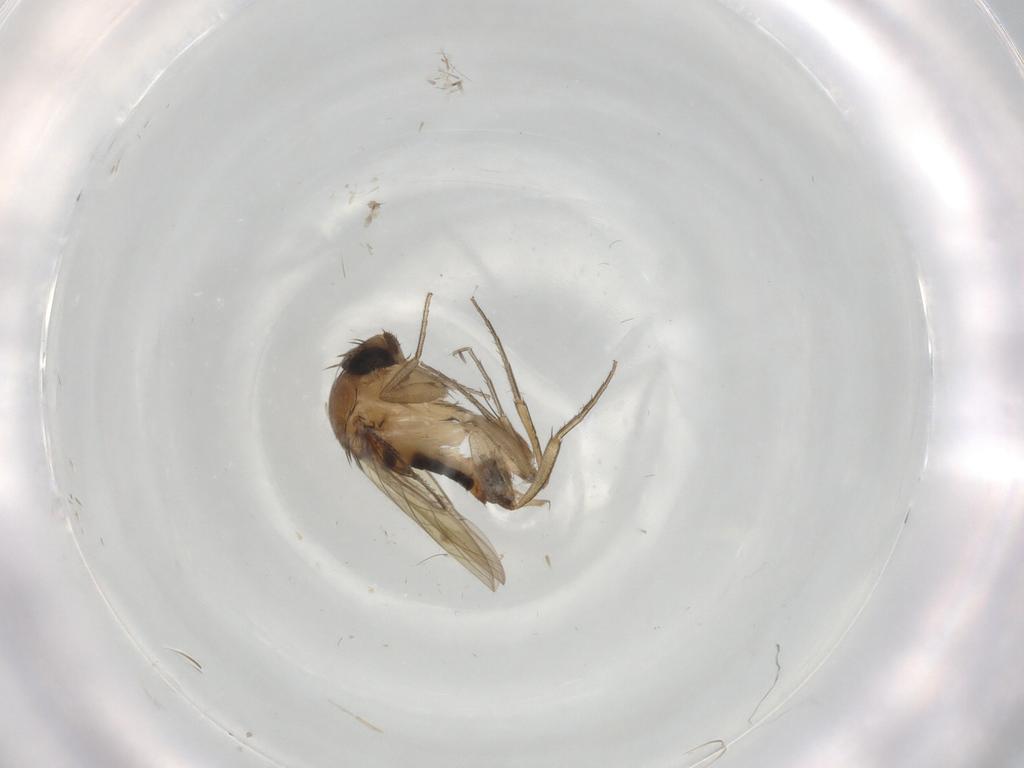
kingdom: Animalia
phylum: Arthropoda
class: Insecta
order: Diptera
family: Phoridae
